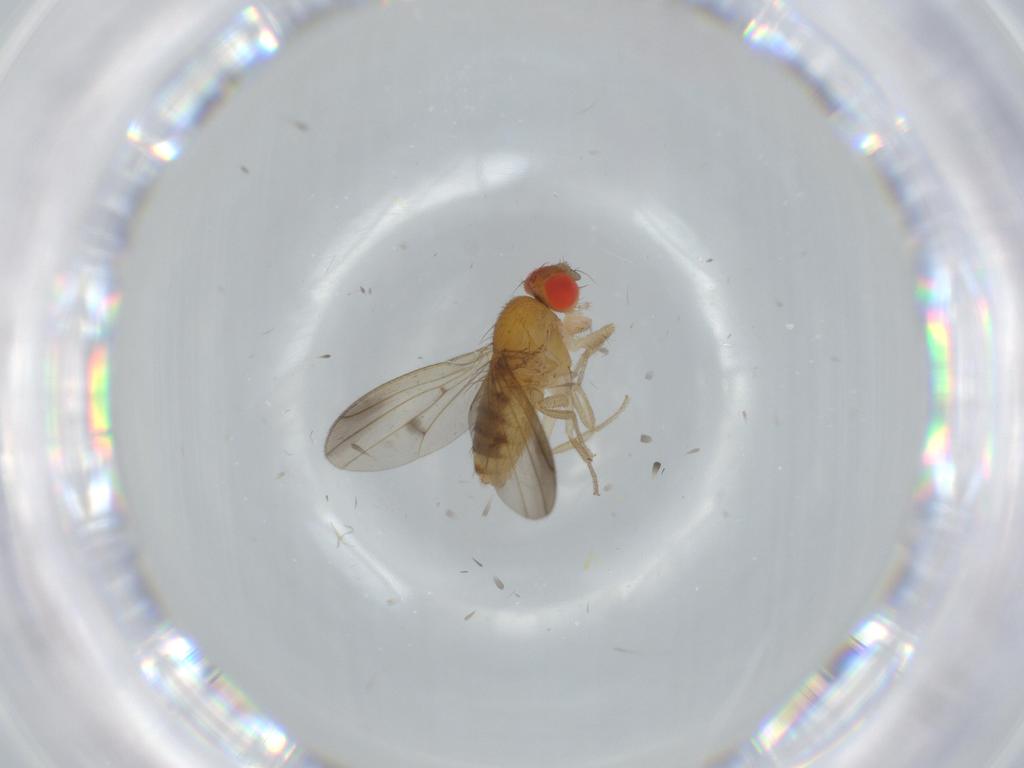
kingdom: Animalia
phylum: Arthropoda
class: Insecta
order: Diptera
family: Drosophilidae
